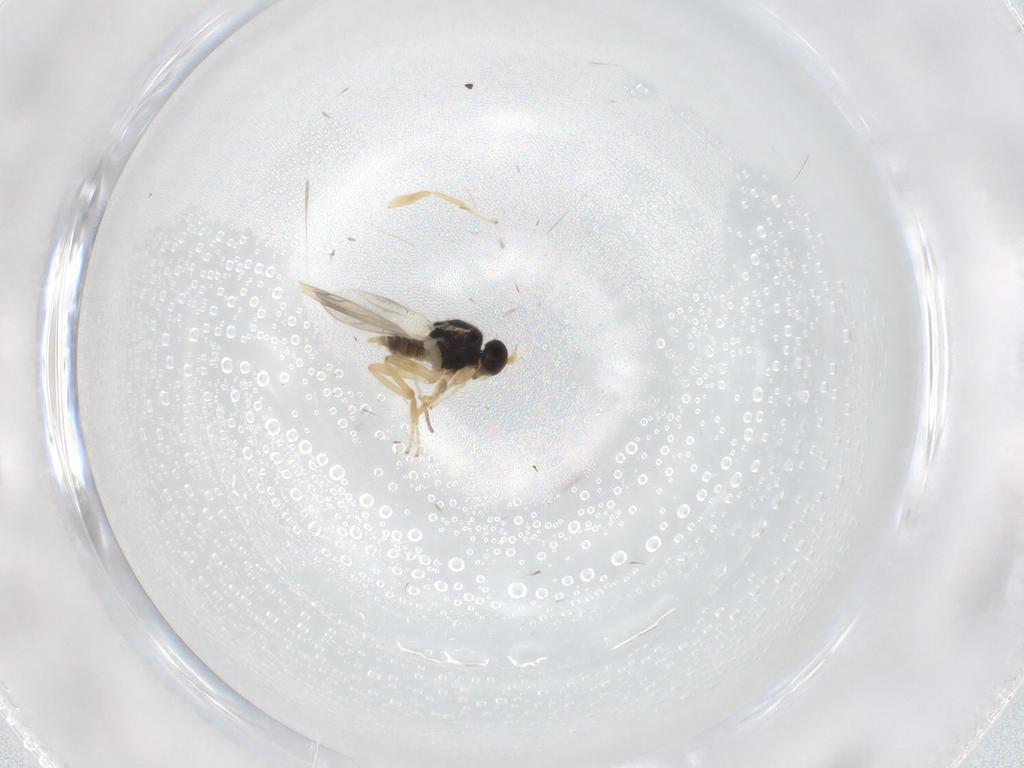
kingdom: Animalia
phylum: Arthropoda
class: Insecta
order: Diptera
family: Hybotidae
